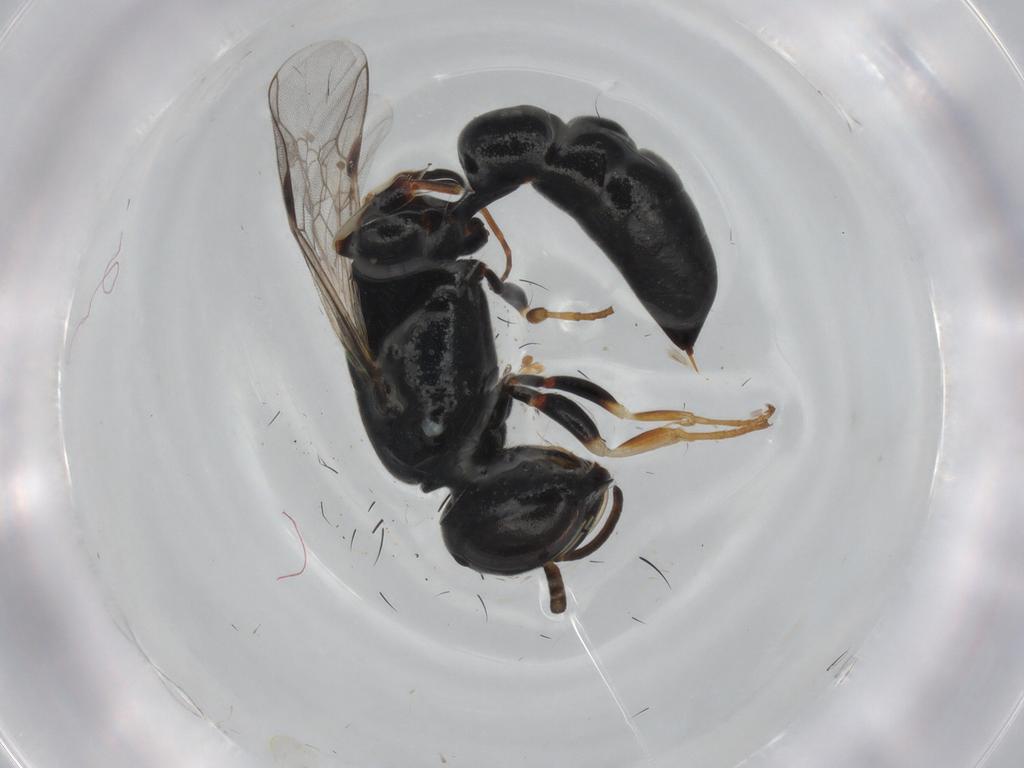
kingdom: Animalia
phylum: Arthropoda
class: Insecta
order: Hymenoptera
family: Crabronidae
